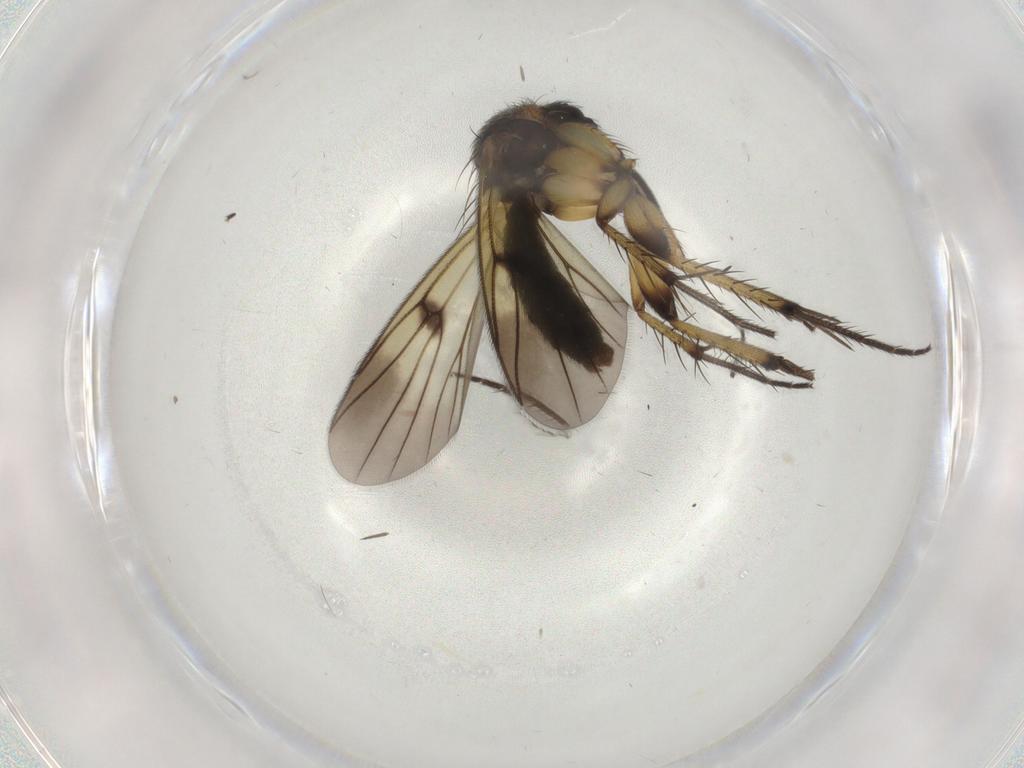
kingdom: Animalia
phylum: Arthropoda
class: Insecta
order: Diptera
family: Mycetophilidae
